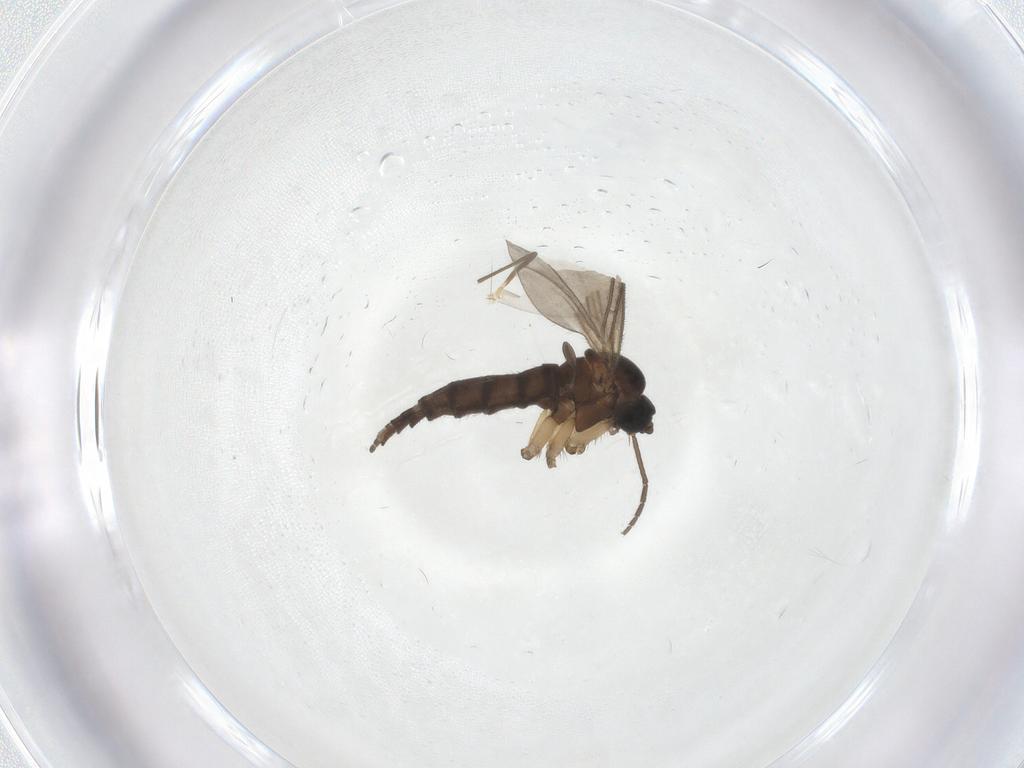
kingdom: Animalia
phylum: Arthropoda
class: Insecta
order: Diptera
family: Sciaridae
